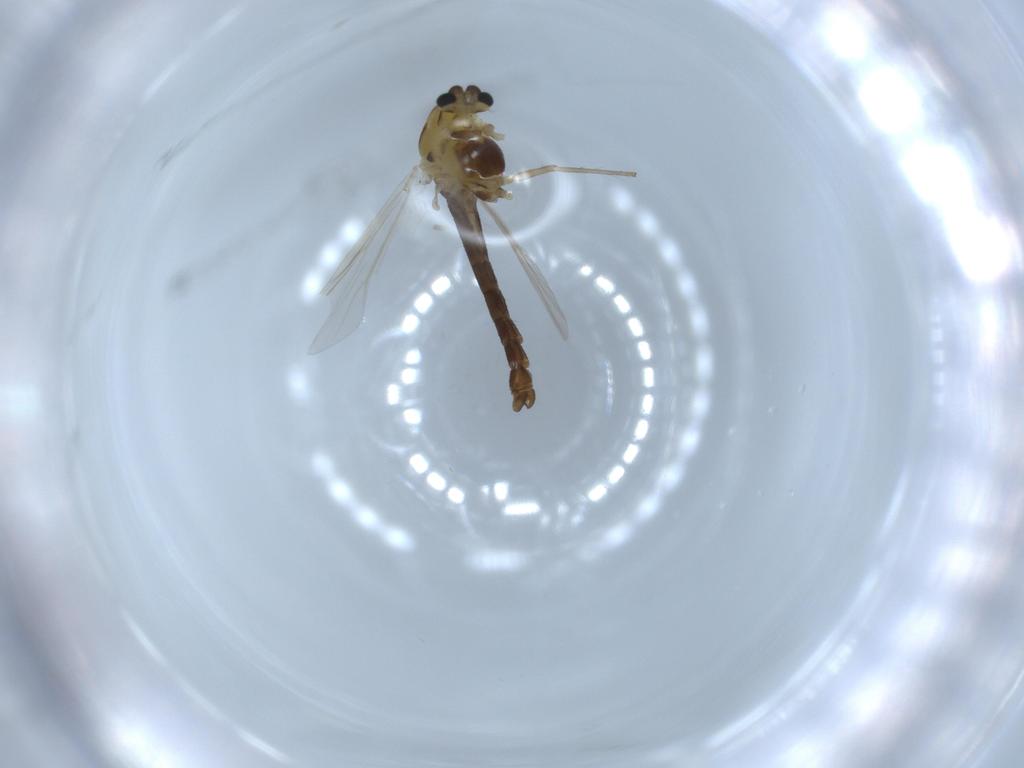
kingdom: Animalia
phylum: Arthropoda
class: Insecta
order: Diptera
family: Chironomidae
